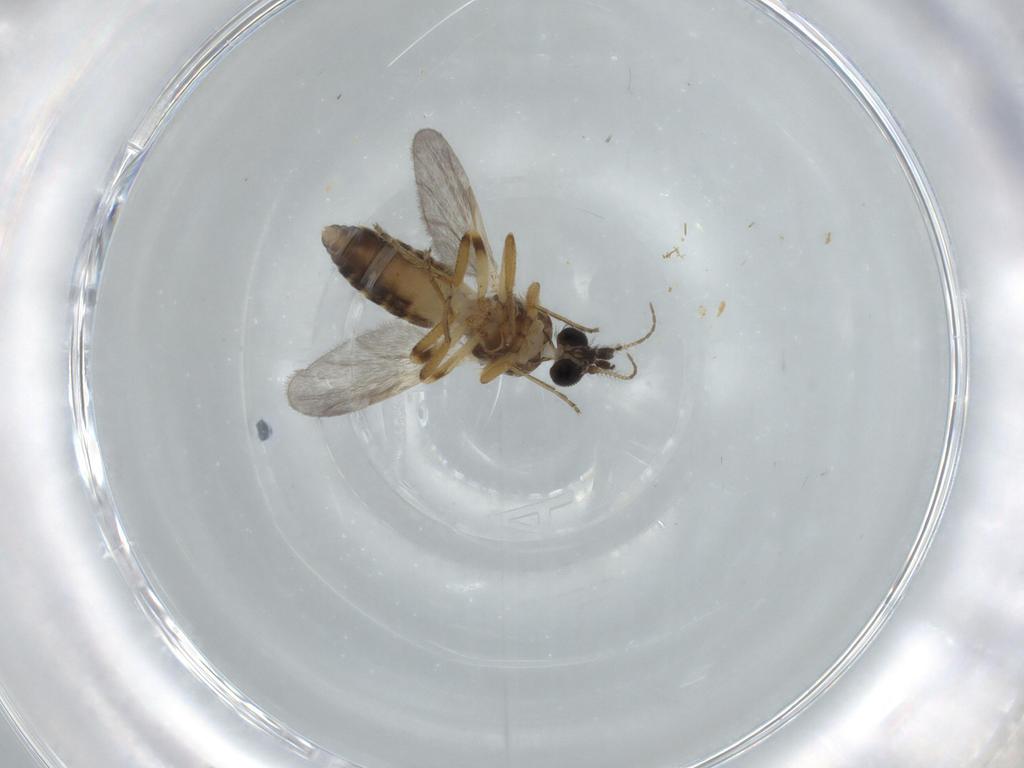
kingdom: Animalia
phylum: Arthropoda
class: Insecta
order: Diptera
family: Ceratopogonidae
